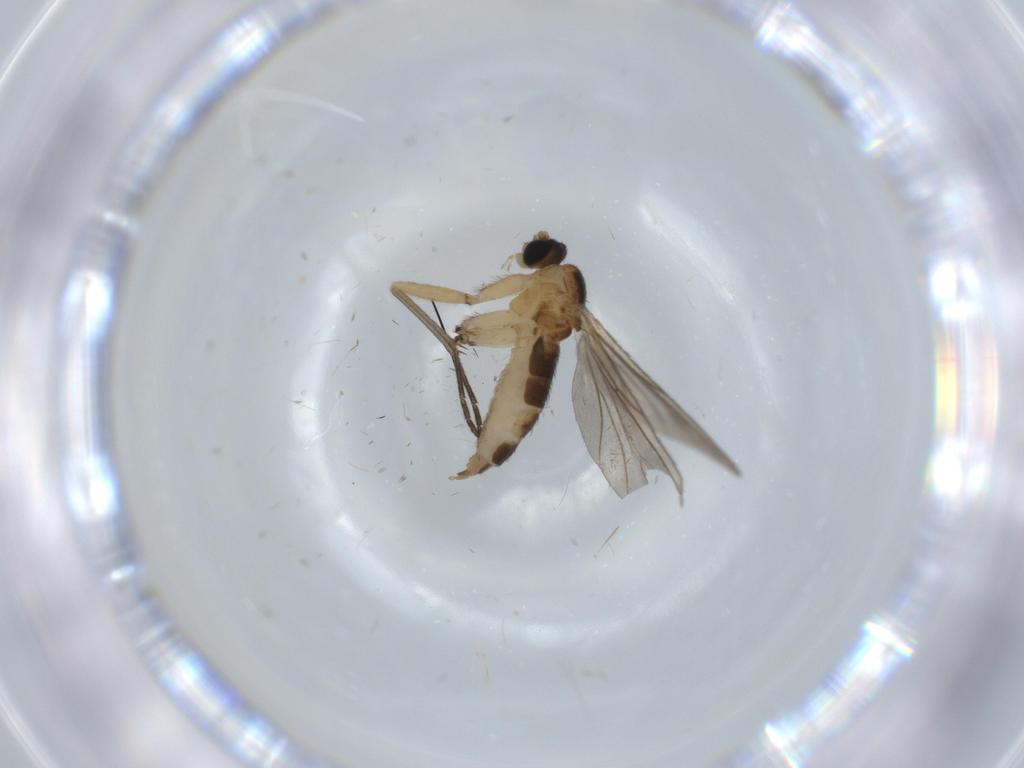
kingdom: Animalia
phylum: Arthropoda
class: Insecta
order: Diptera
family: Sciaridae
